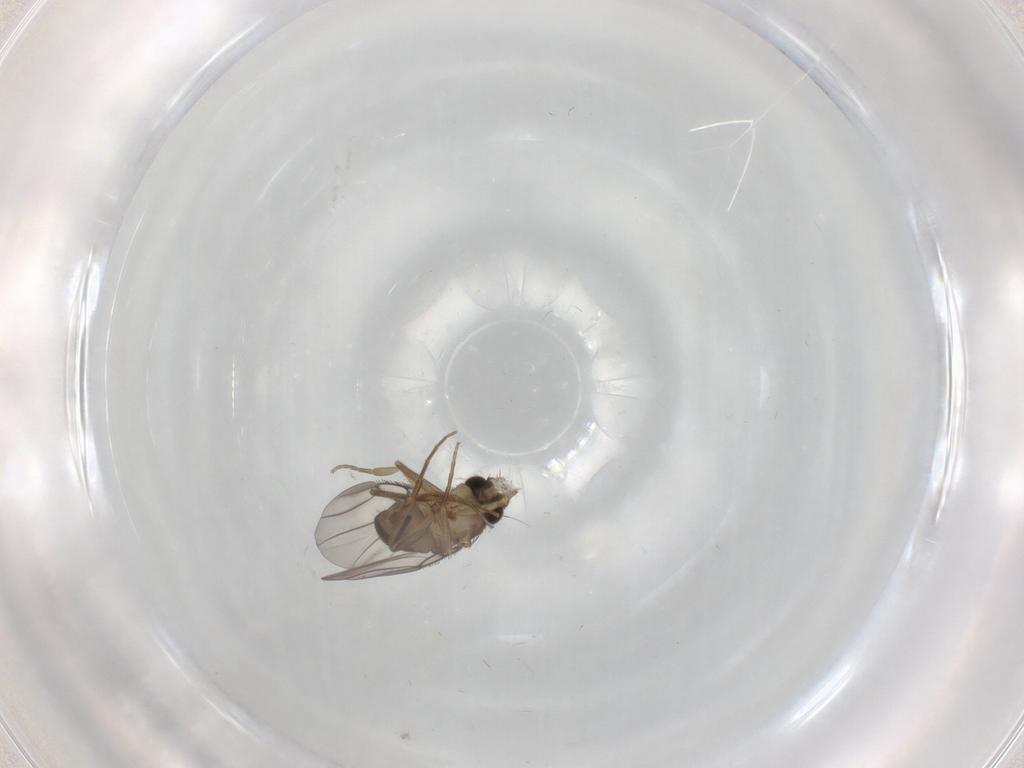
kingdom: Animalia
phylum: Arthropoda
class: Insecta
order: Diptera
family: Phoridae
